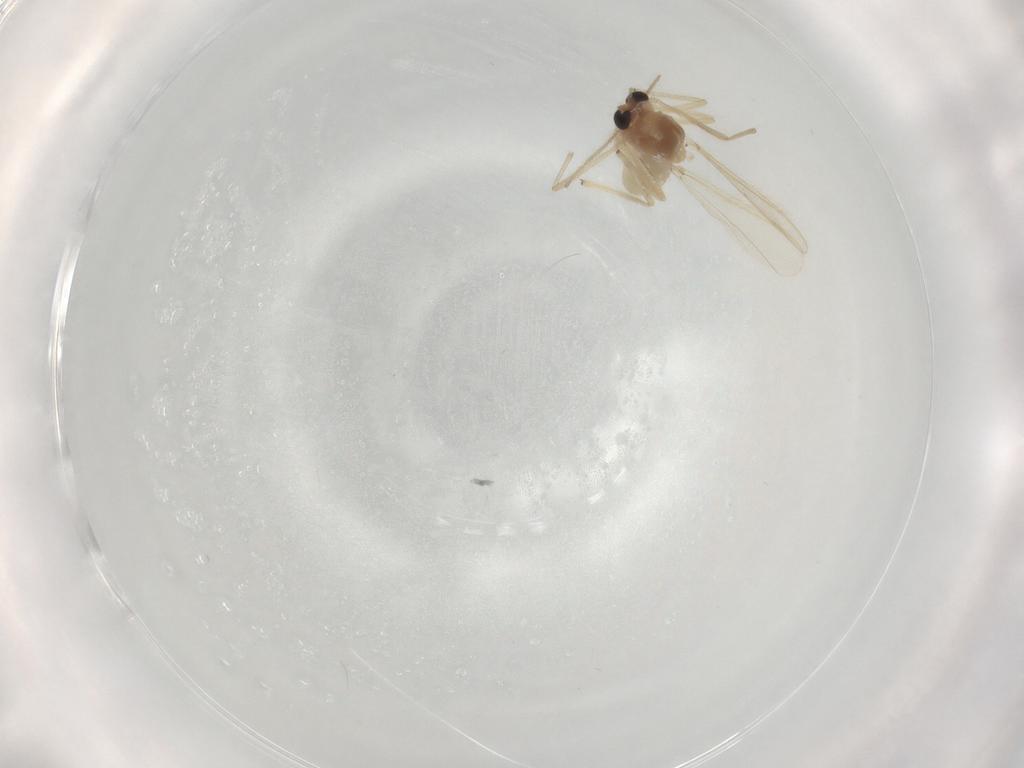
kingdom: Animalia
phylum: Arthropoda
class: Insecta
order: Diptera
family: Chironomidae
